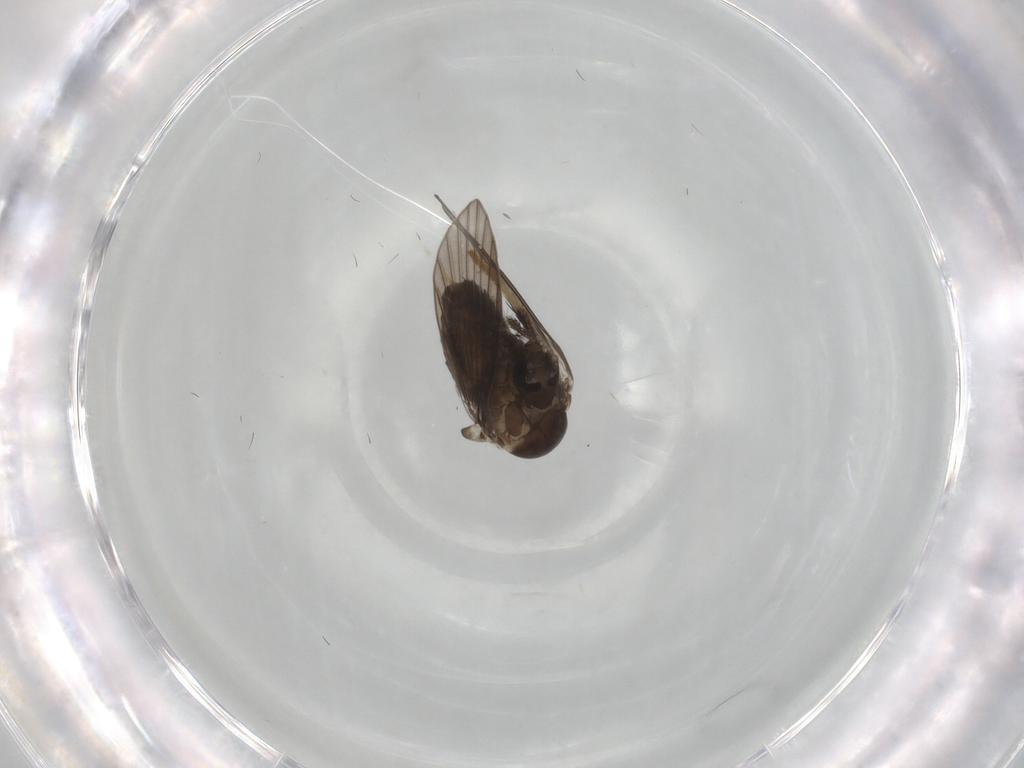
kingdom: Animalia
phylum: Arthropoda
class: Insecta
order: Diptera
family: Psychodidae
